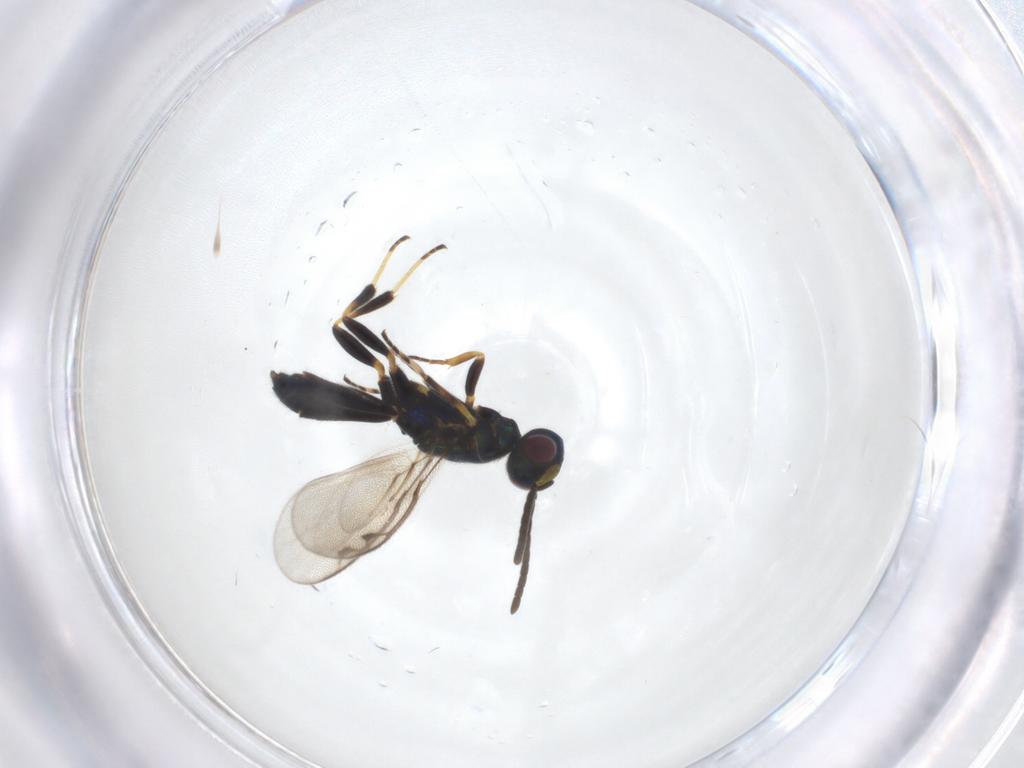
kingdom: Animalia
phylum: Arthropoda
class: Insecta
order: Hymenoptera
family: Eupelmidae
